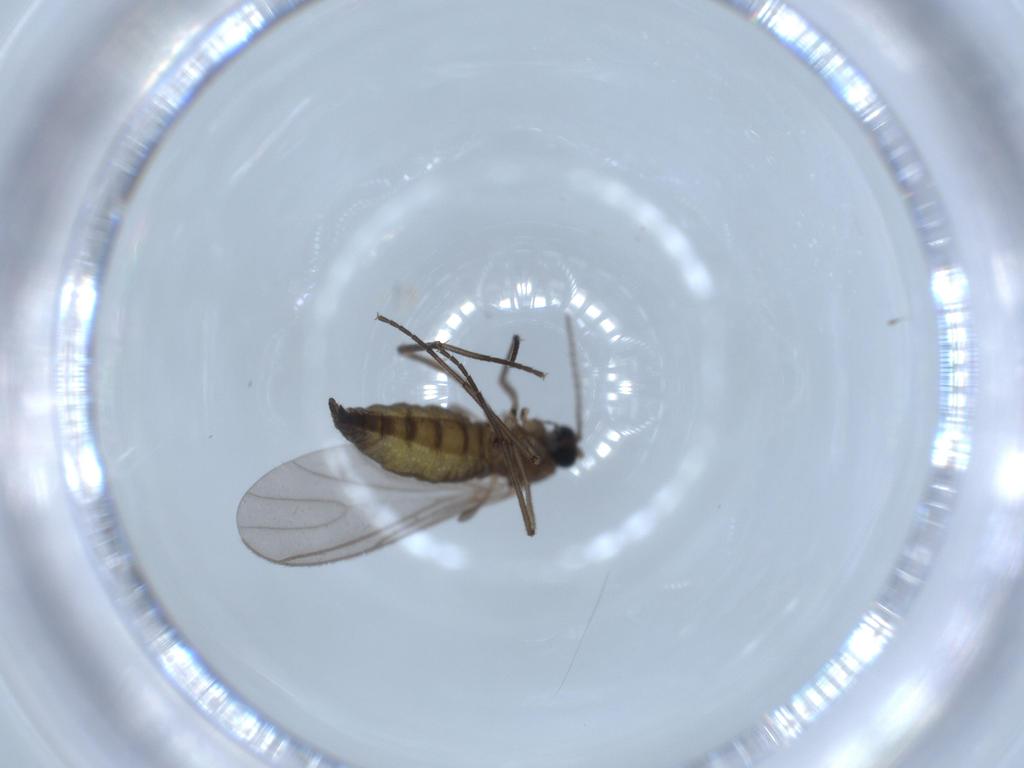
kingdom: Animalia
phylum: Arthropoda
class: Insecta
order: Diptera
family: Sciaridae
